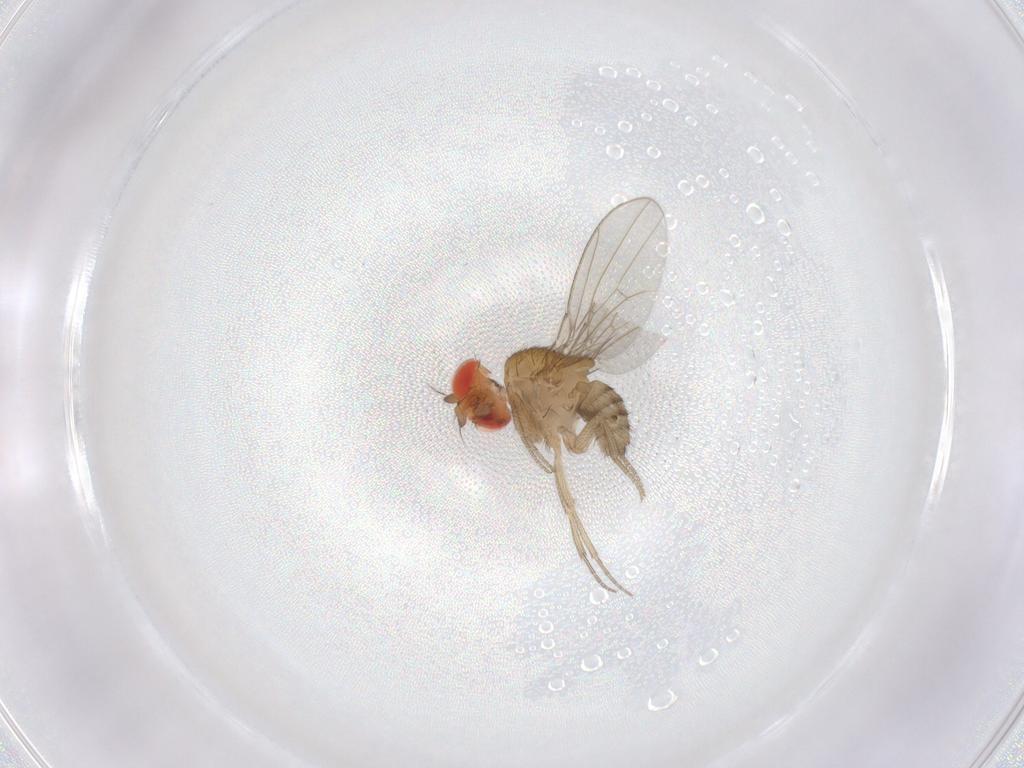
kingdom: Animalia
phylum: Arthropoda
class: Insecta
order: Diptera
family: Drosophilidae
